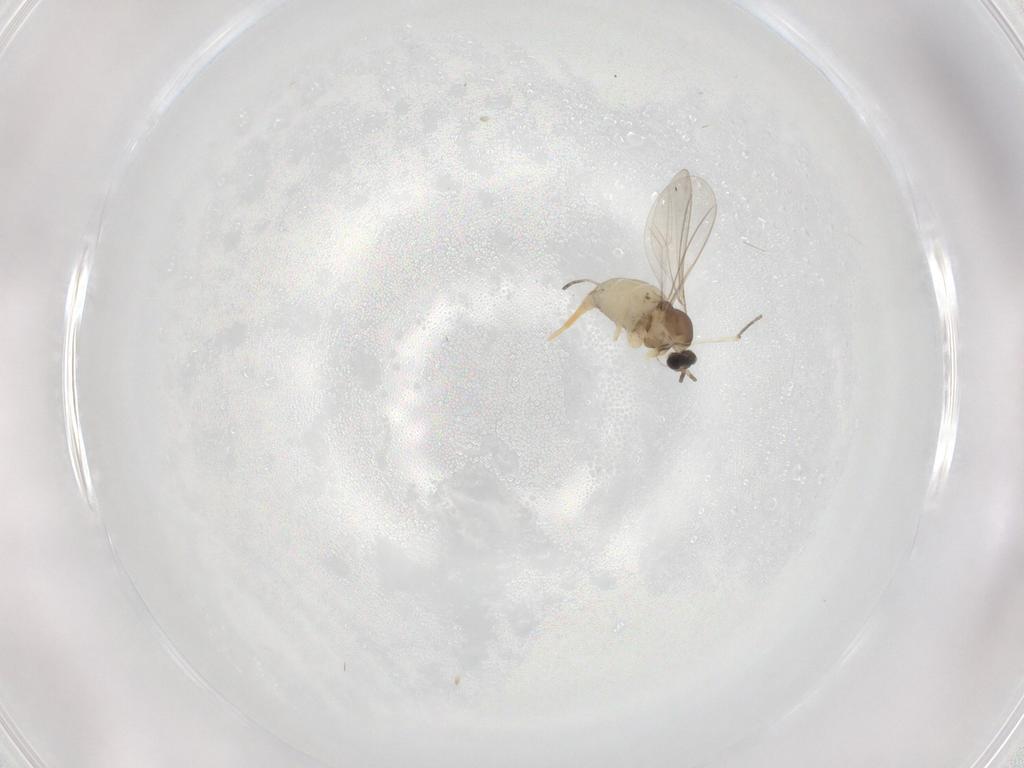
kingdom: Animalia
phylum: Arthropoda
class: Insecta
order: Diptera
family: Cecidomyiidae
